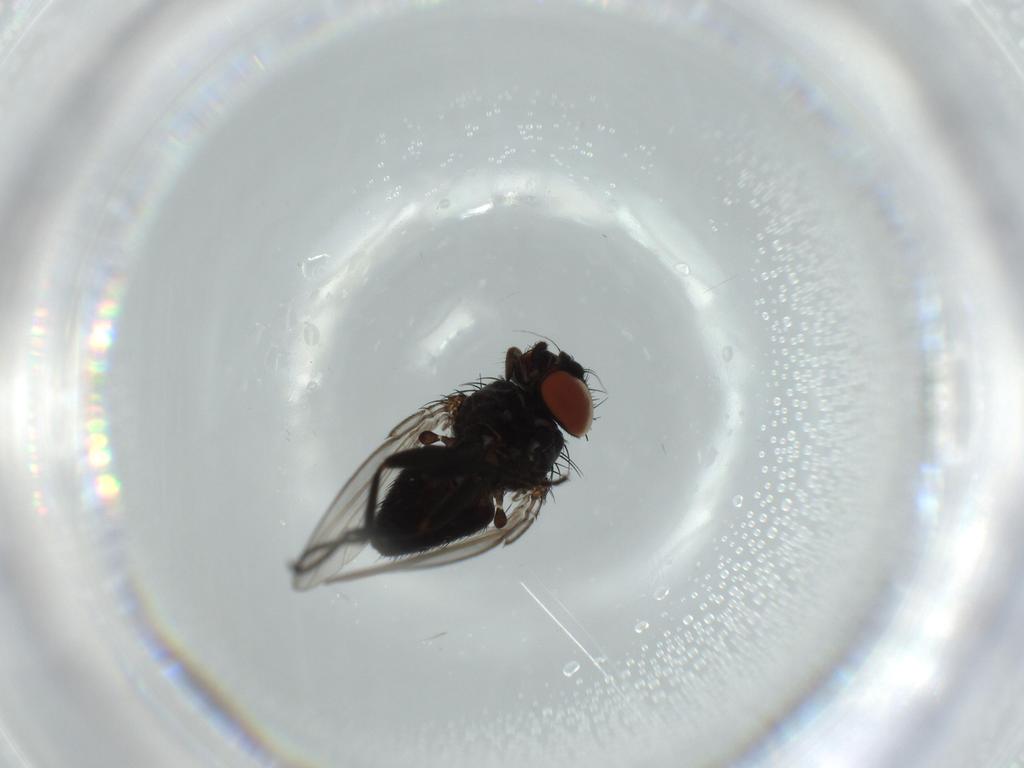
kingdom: Animalia
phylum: Arthropoda
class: Insecta
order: Diptera
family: Milichiidae
